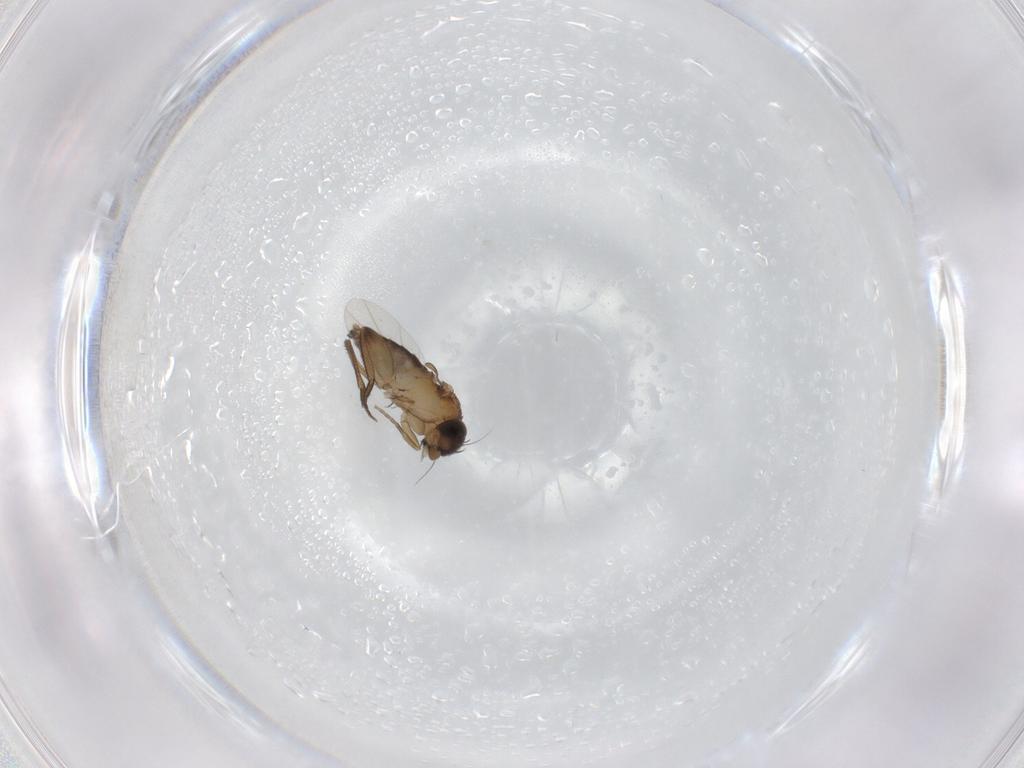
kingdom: Animalia
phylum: Arthropoda
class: Insecta
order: Diptera
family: Phoridae
